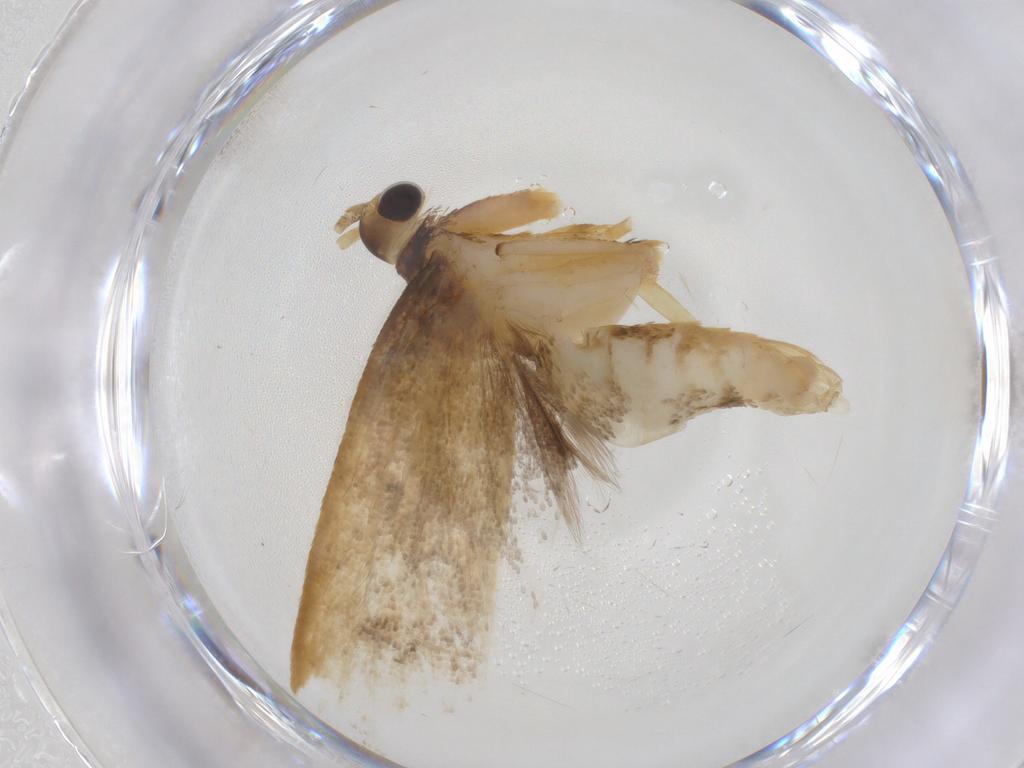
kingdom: Animalia
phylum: Arthropoda
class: Insecta
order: Lepidoptera
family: Lecithoceridae
